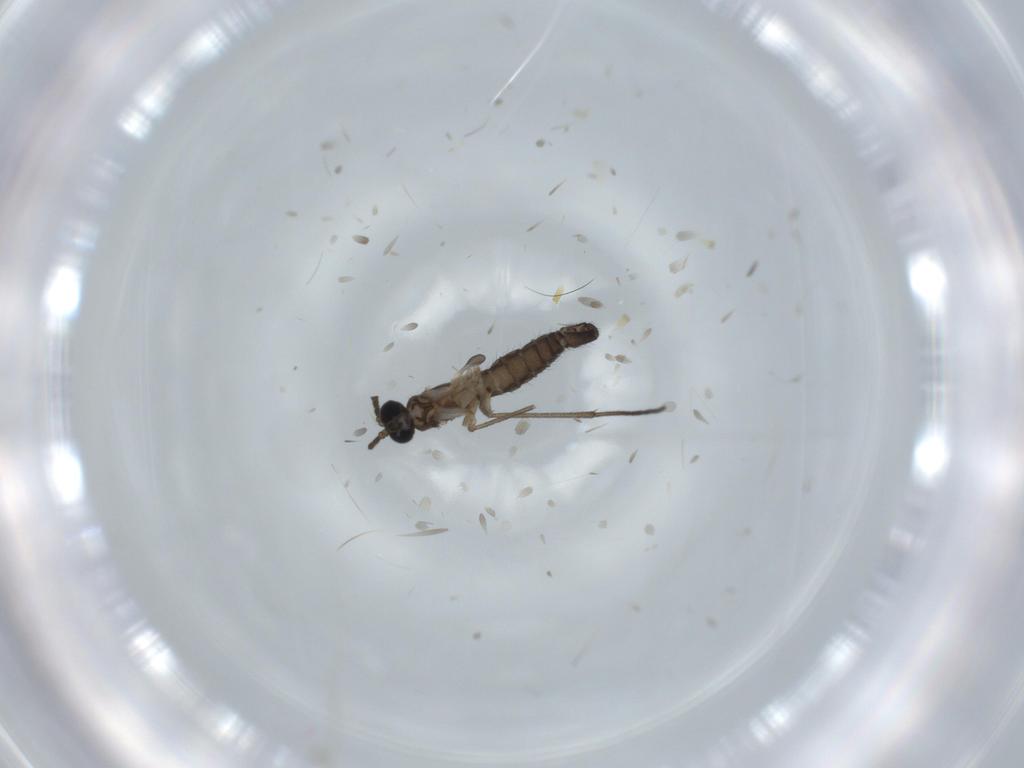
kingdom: Animalia
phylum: Arthropoda
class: Insecta
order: Diptera
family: Sciaridae
